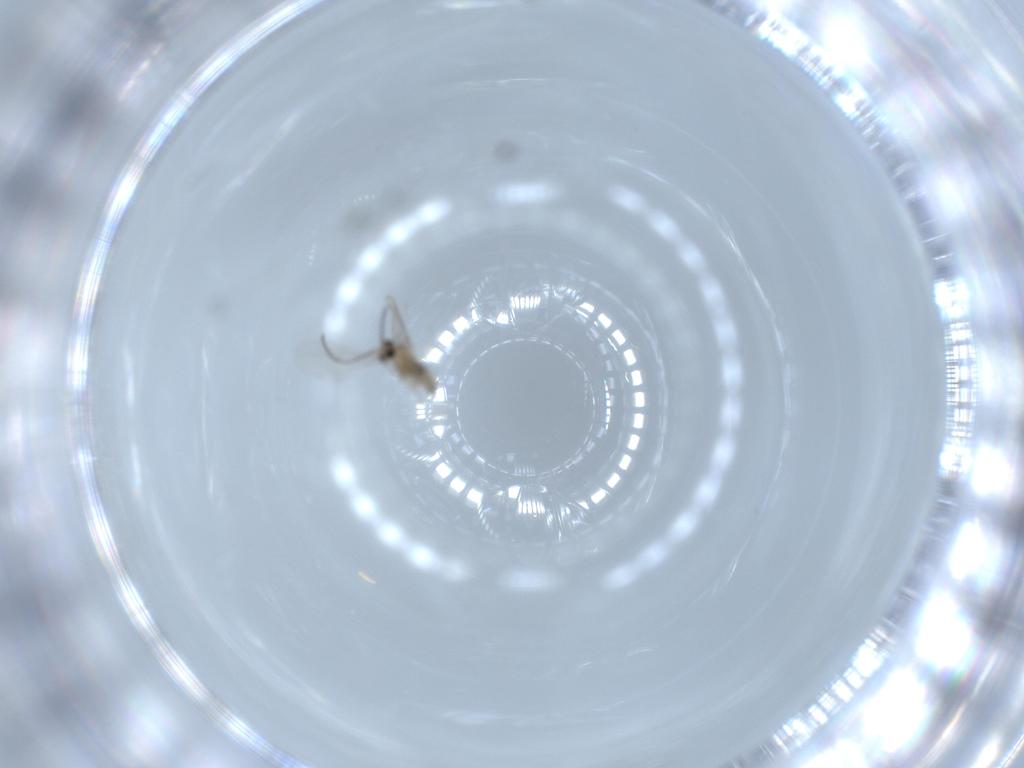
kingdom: Animalia
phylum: Arthropoda
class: Insecta
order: Diptera
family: Cecidomyiidae
